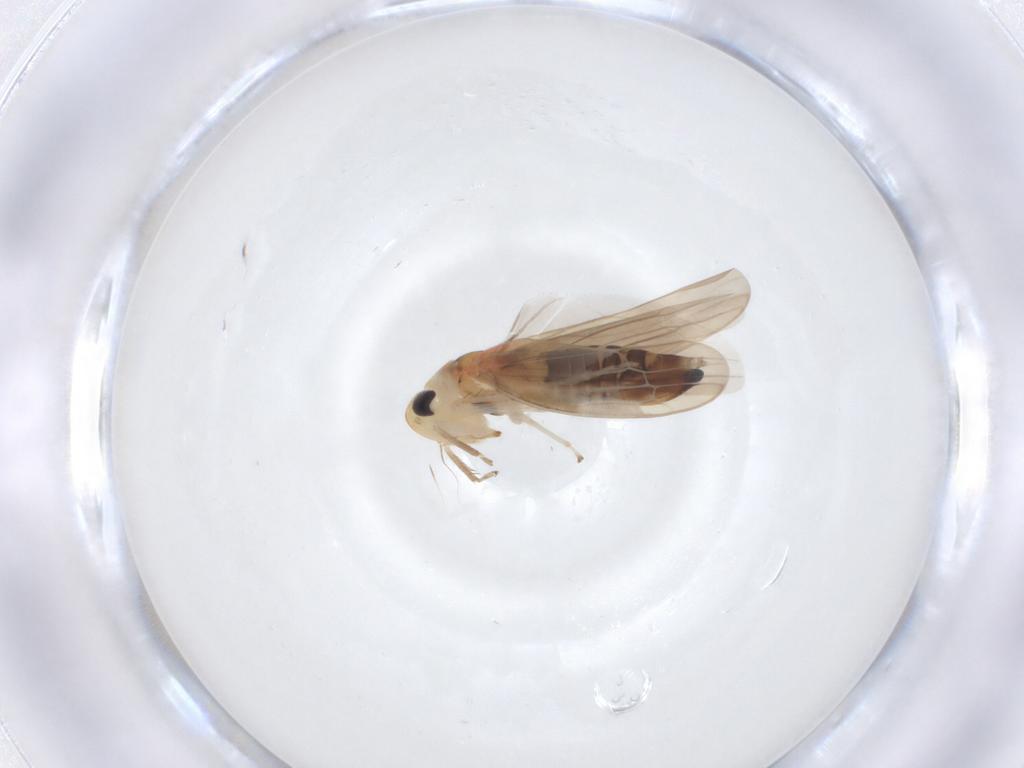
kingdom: Animalia
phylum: Arthropoda
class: Insecta
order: Hemiptera
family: Cicadellidae
